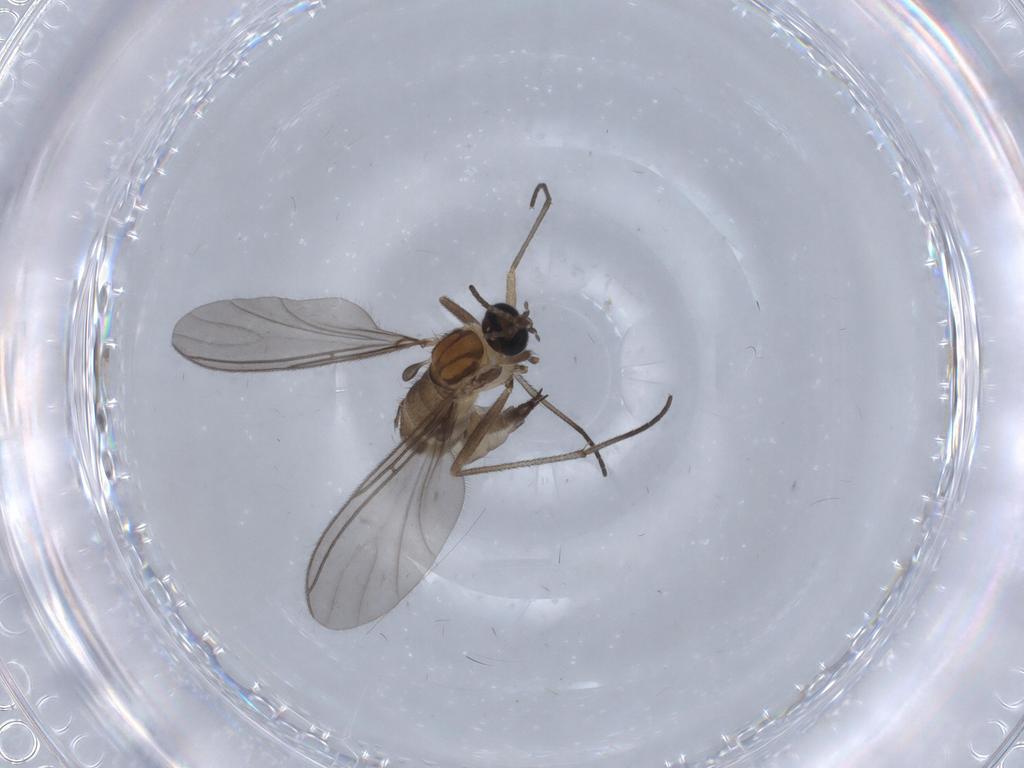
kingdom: Animalia
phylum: Arthropoda
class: Insecta
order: Diptera
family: Sciaridae
